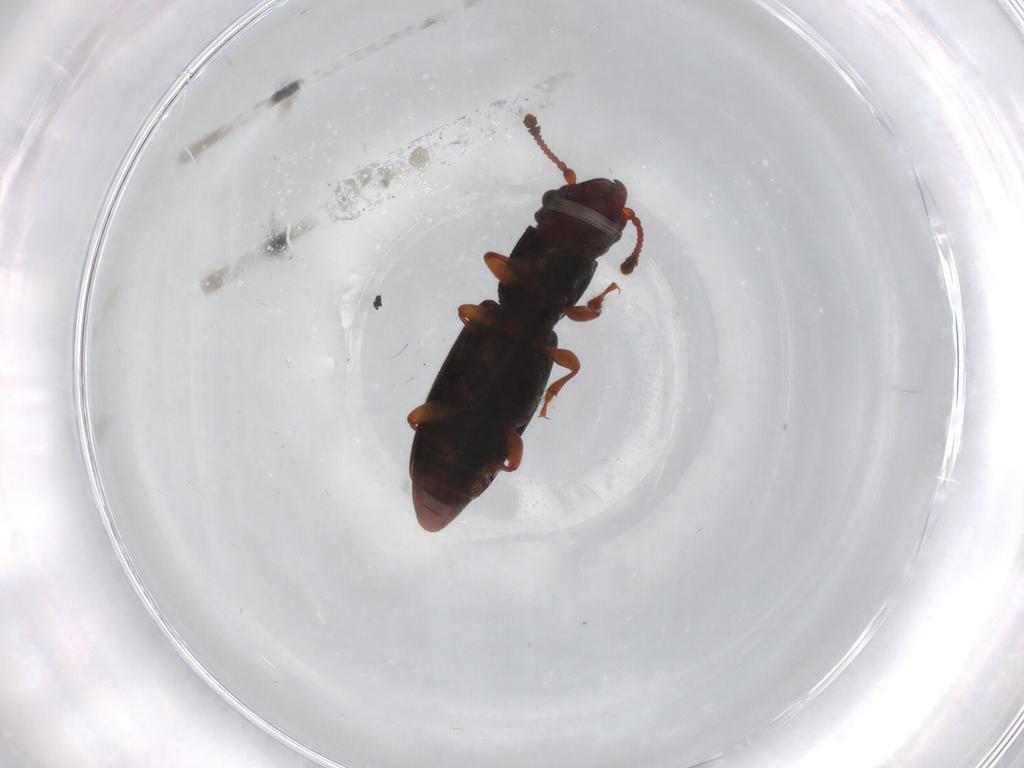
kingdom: Animalia
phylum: Arthropoda
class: Insecta
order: Coleoptera
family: Monotomidae
